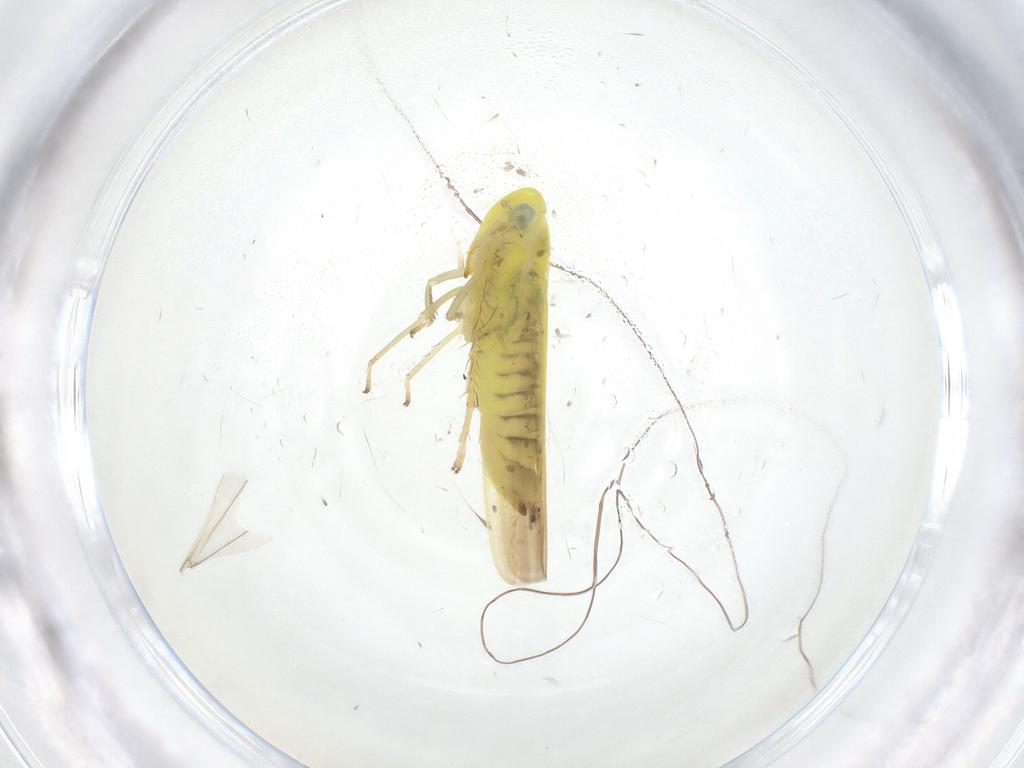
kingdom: Animalia
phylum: Arthropoda
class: Insecta
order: Hemiptera
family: Cicadellidae
